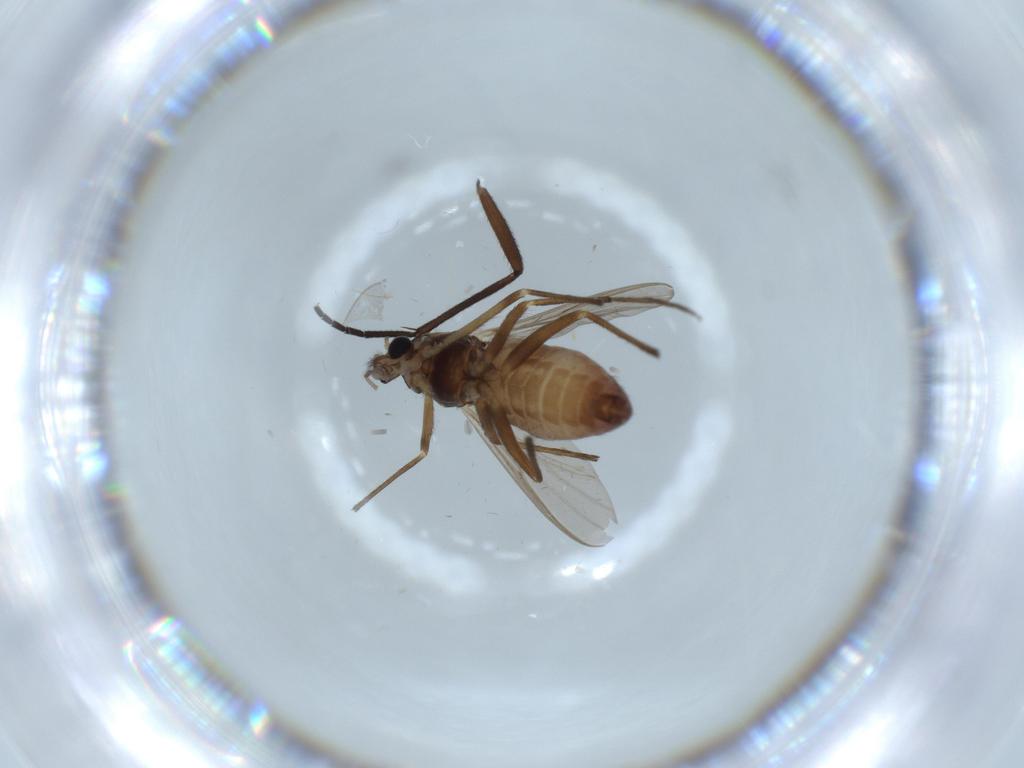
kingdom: Animalia
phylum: Arthropoda
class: Insecta
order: Diptera
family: Chironomidae
